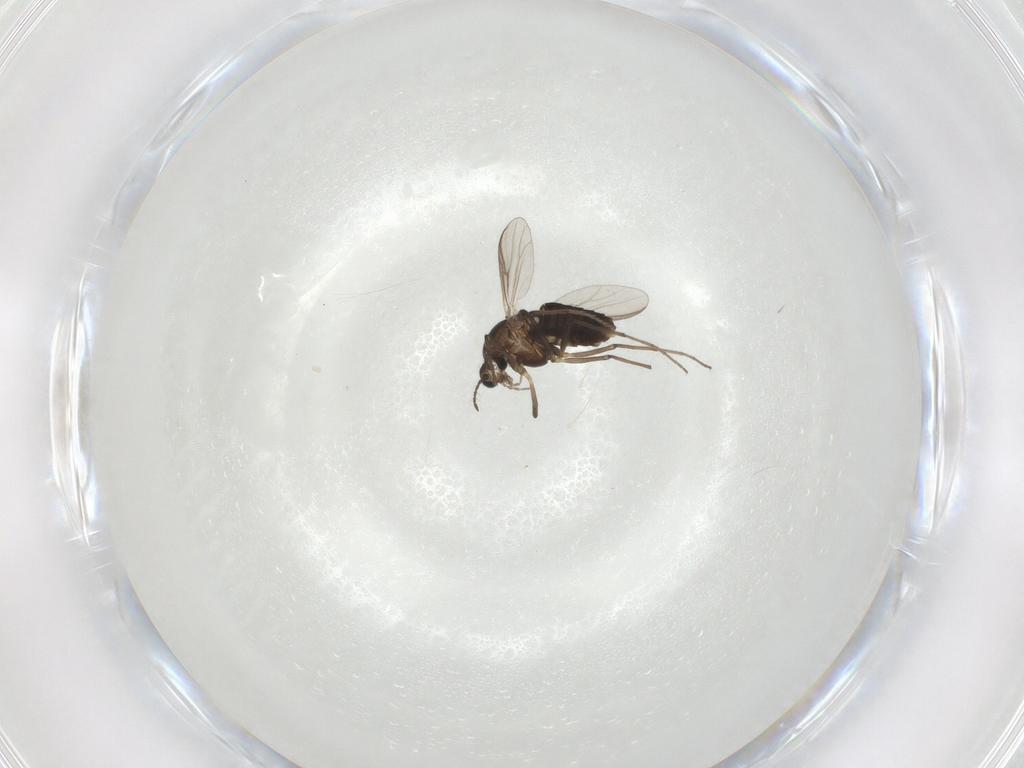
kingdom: Animalia
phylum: Arthropoda
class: Insecta
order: Diptera
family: Chironomidae
